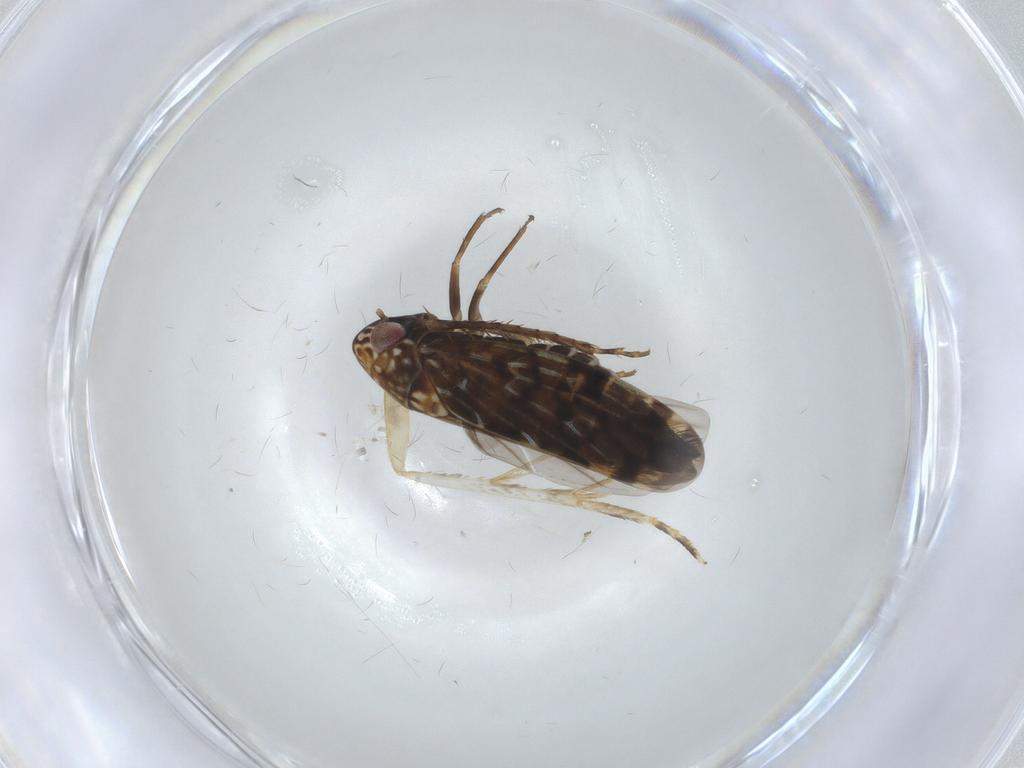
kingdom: Animalia
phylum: Arthropoda
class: Insecta
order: Hemiptera
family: Cicadellidae
